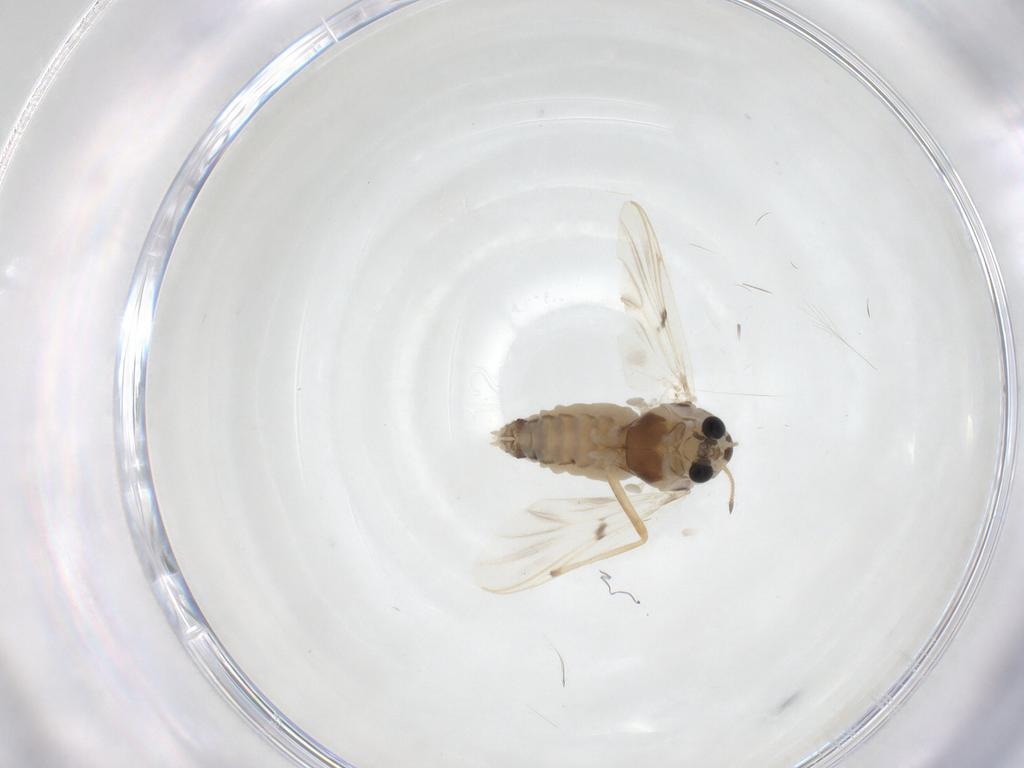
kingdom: Animalia
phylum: Arthropoda
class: Insecta
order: Diptera
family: Chironomidae
